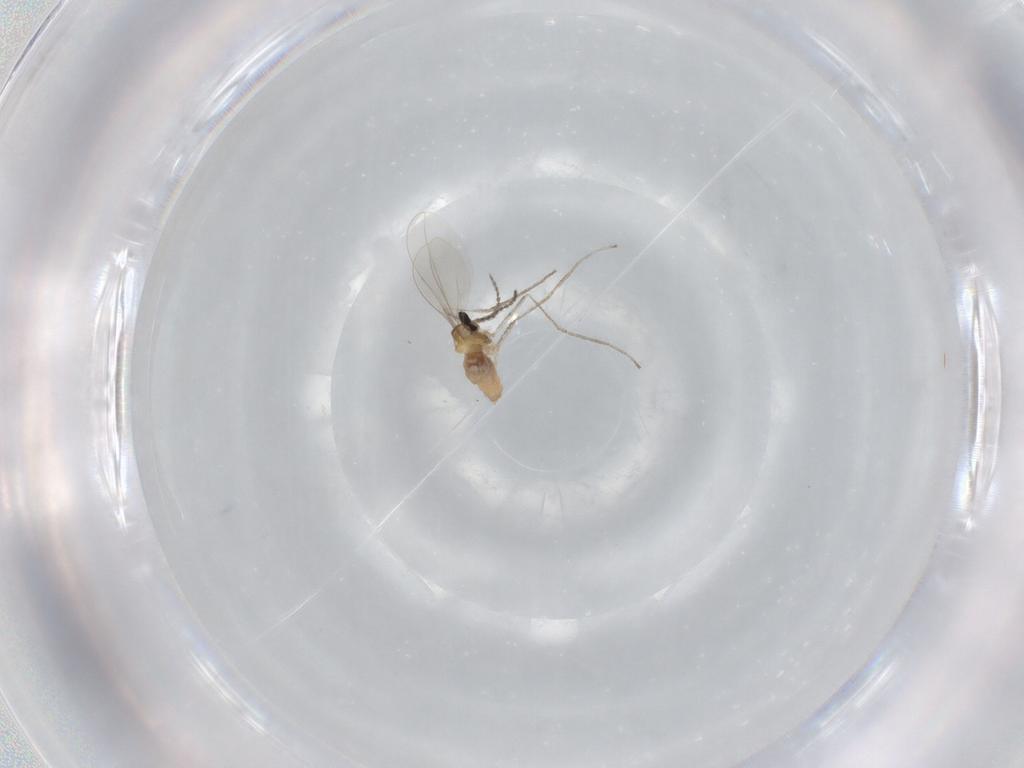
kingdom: Animalia
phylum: Arthropoda
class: Insecta
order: Diptera
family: Cecidomyiidae
